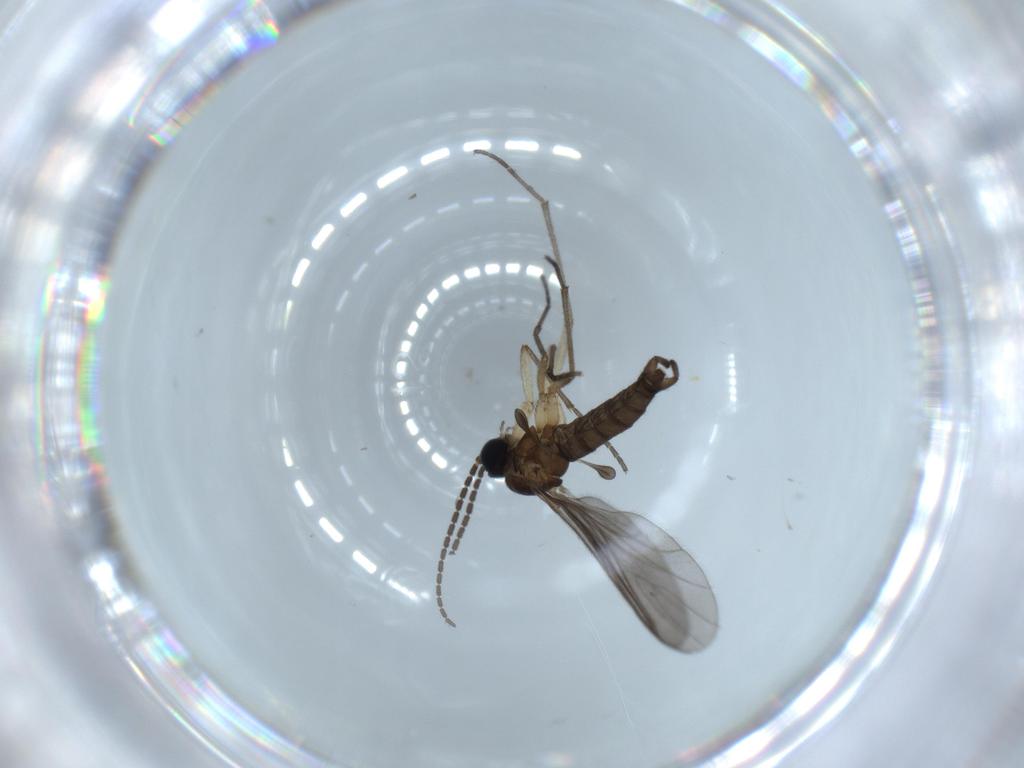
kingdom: Animalia
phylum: Arthropoda
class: Insecta
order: Diptera
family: Sciaridae
